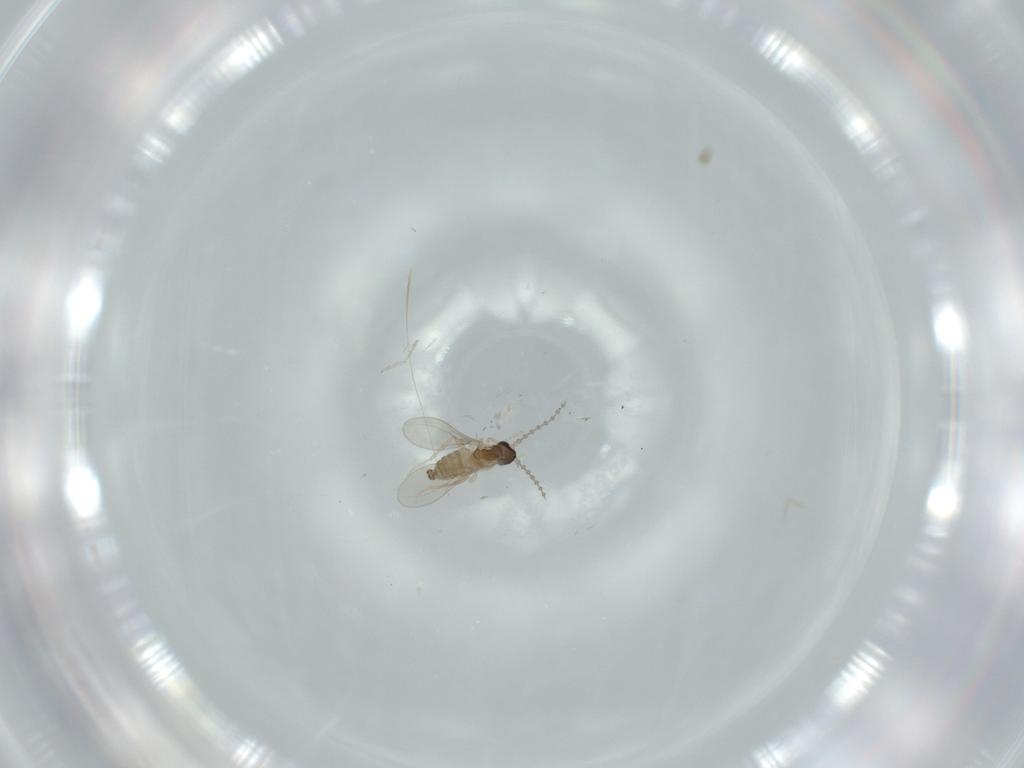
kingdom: Animalia
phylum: Arthropoda
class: Insecta
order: Diptera
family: Cecidomyiidae
